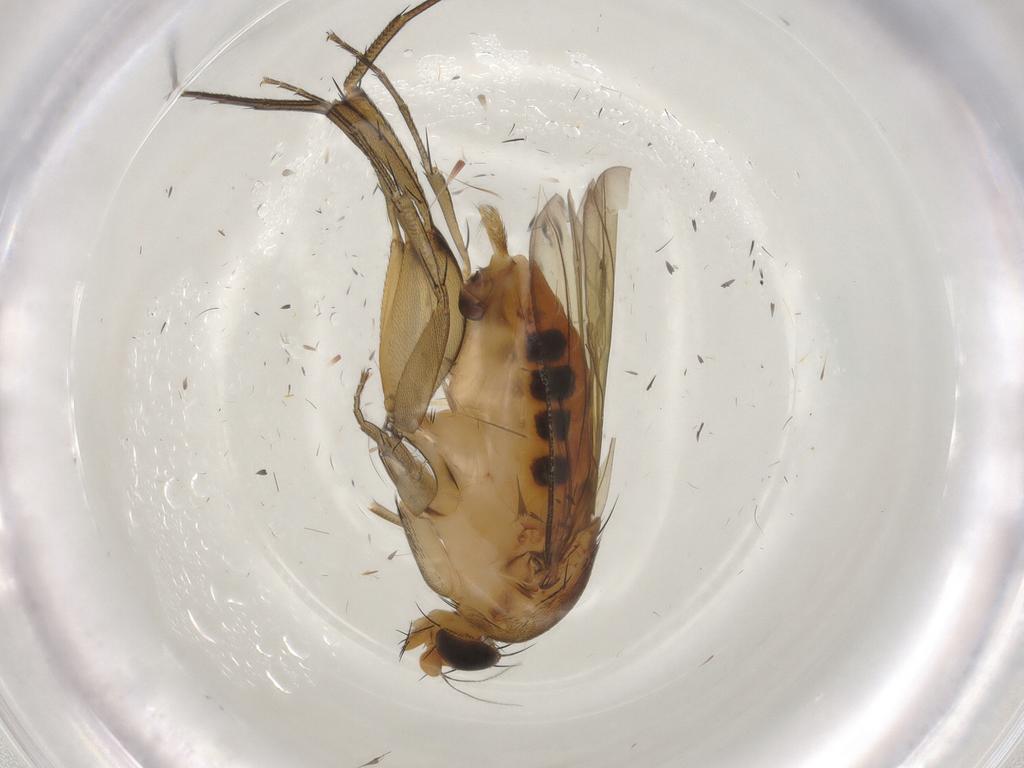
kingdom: Animalia
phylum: Arthropoda
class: Insecta
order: Diptera
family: Phoridae
